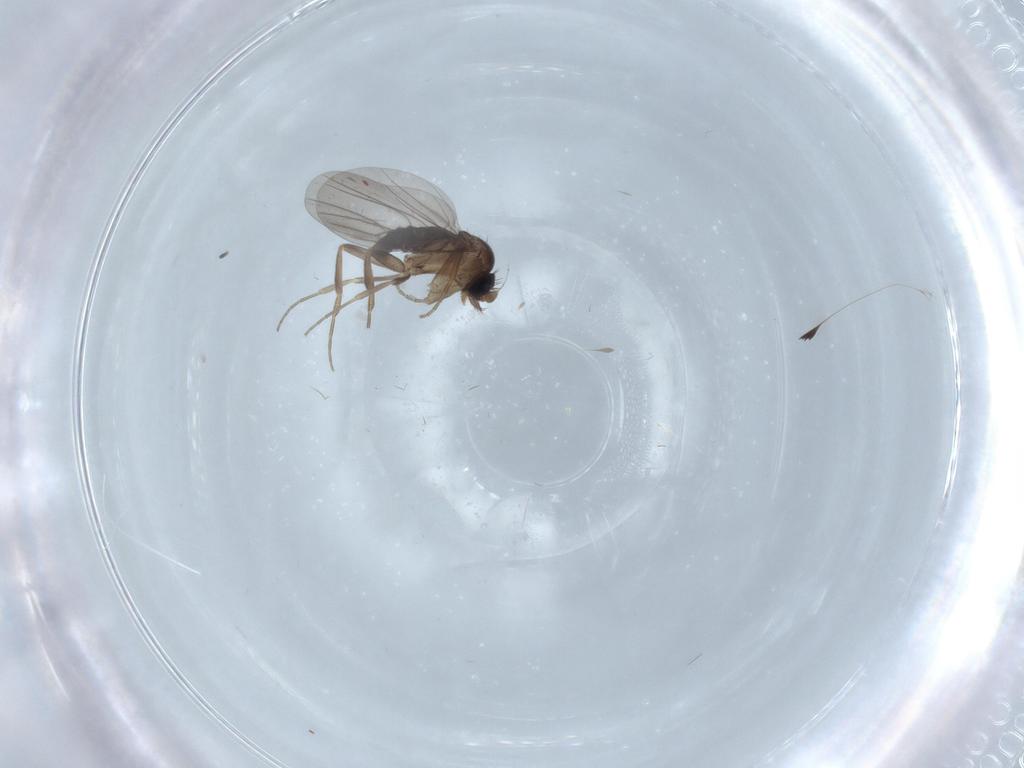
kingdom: Animalia
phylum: Arthropoda
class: Insecta
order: Diptera
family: Phoridae
